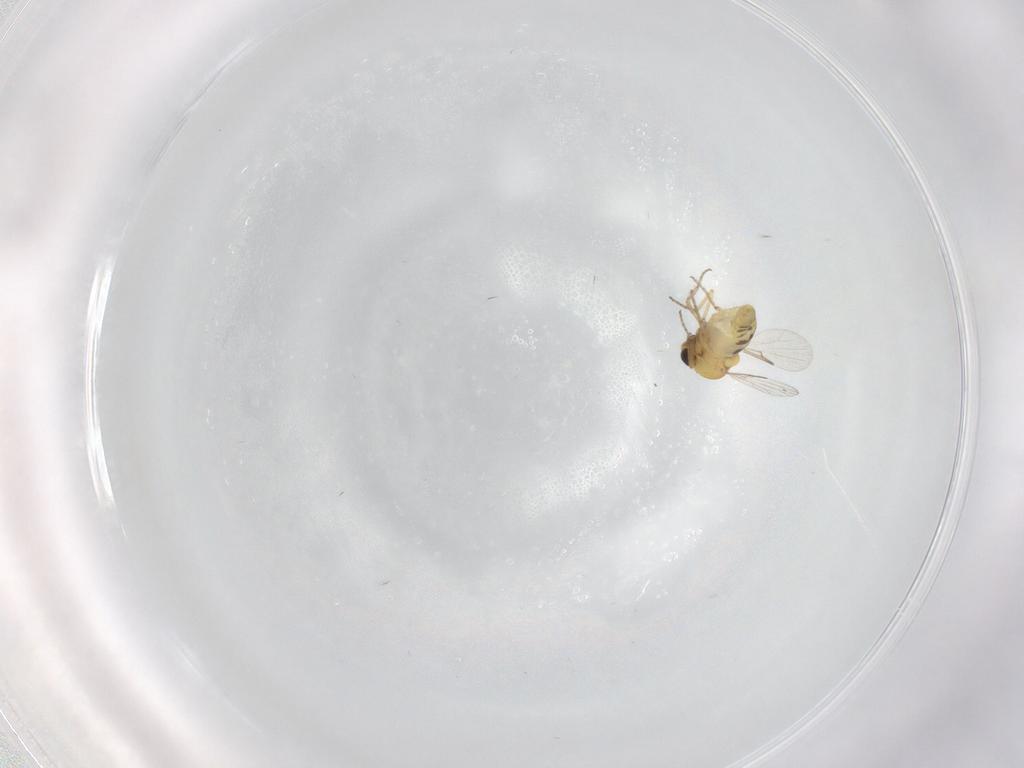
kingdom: Animalia
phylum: Arthropoda
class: Insecta
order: Diptera
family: Ceratopogonidae
